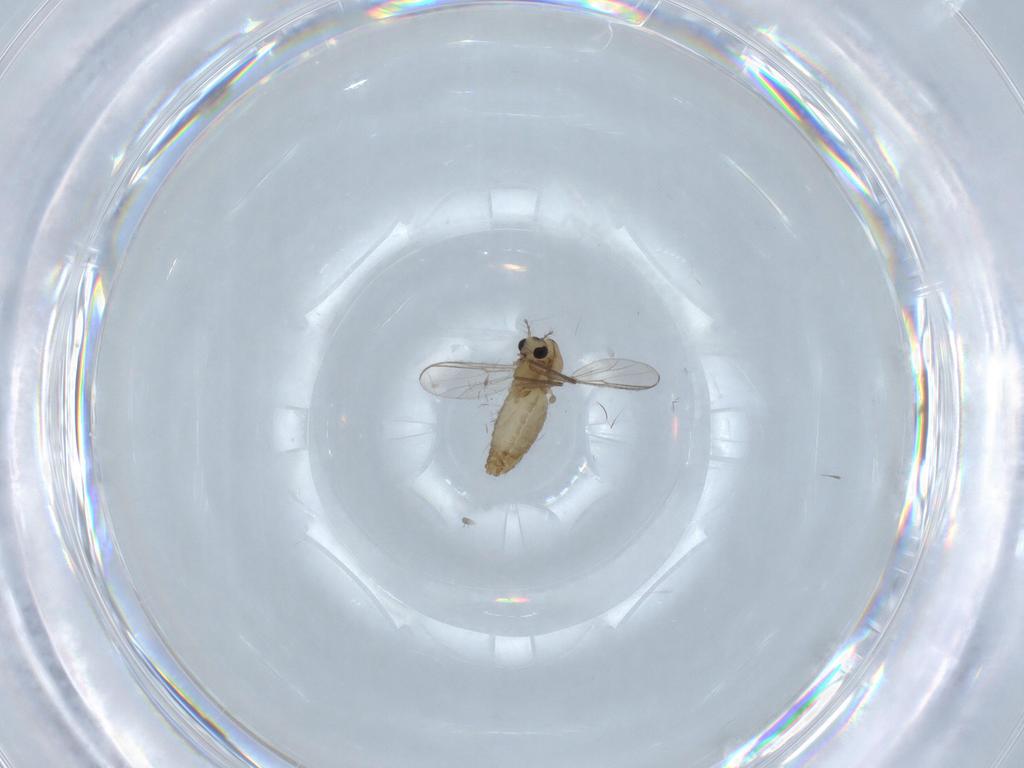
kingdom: Animalia
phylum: Arthropoda
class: Insecta
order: Diptera
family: Chironomidae
